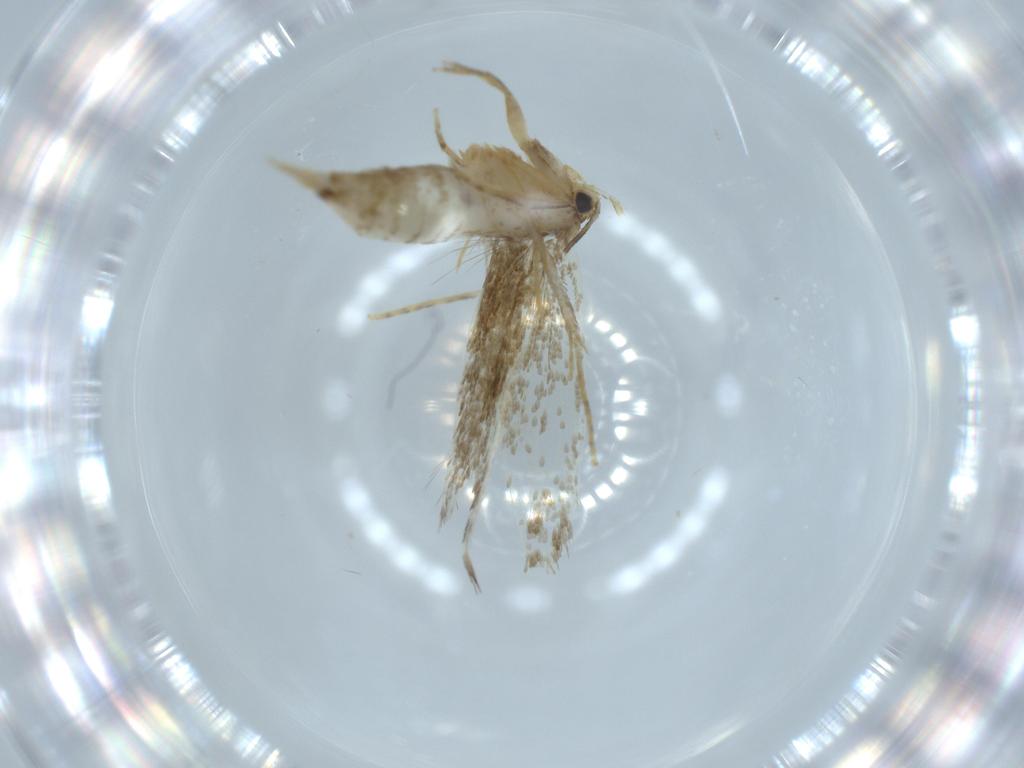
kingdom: Animalia
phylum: Arthropoda
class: Insecta
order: Lepidoptera
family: Tineidae
